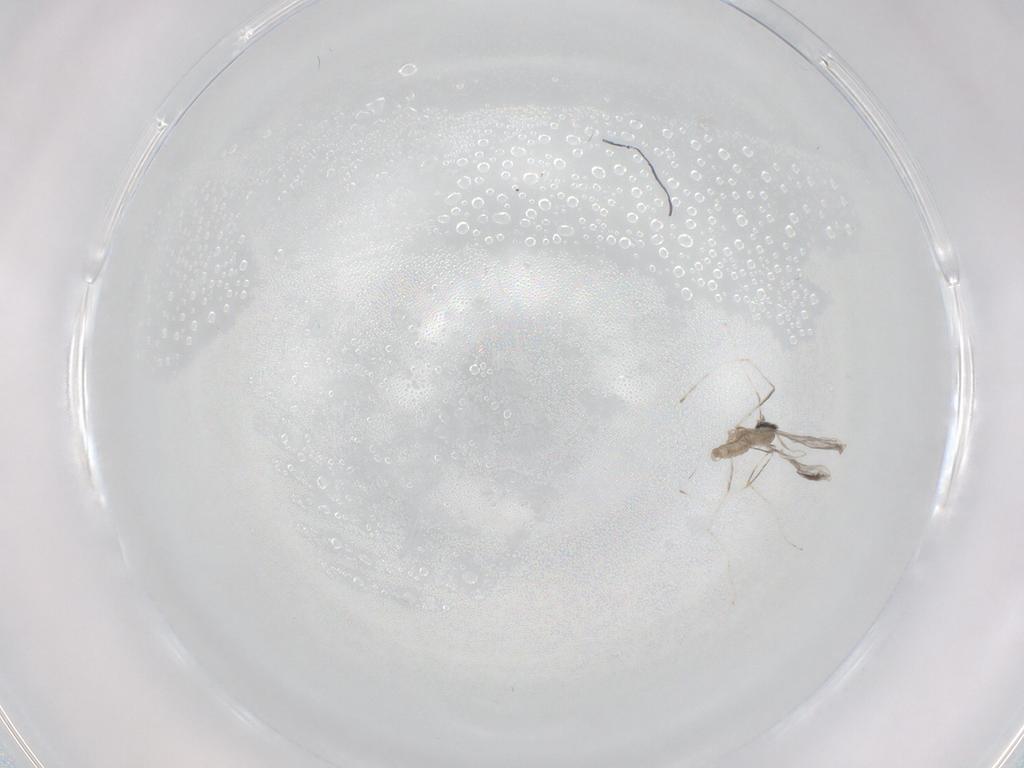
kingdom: Animalia
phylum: Arthropoda
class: Insecta
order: Diptera
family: Cecidomyiidae
